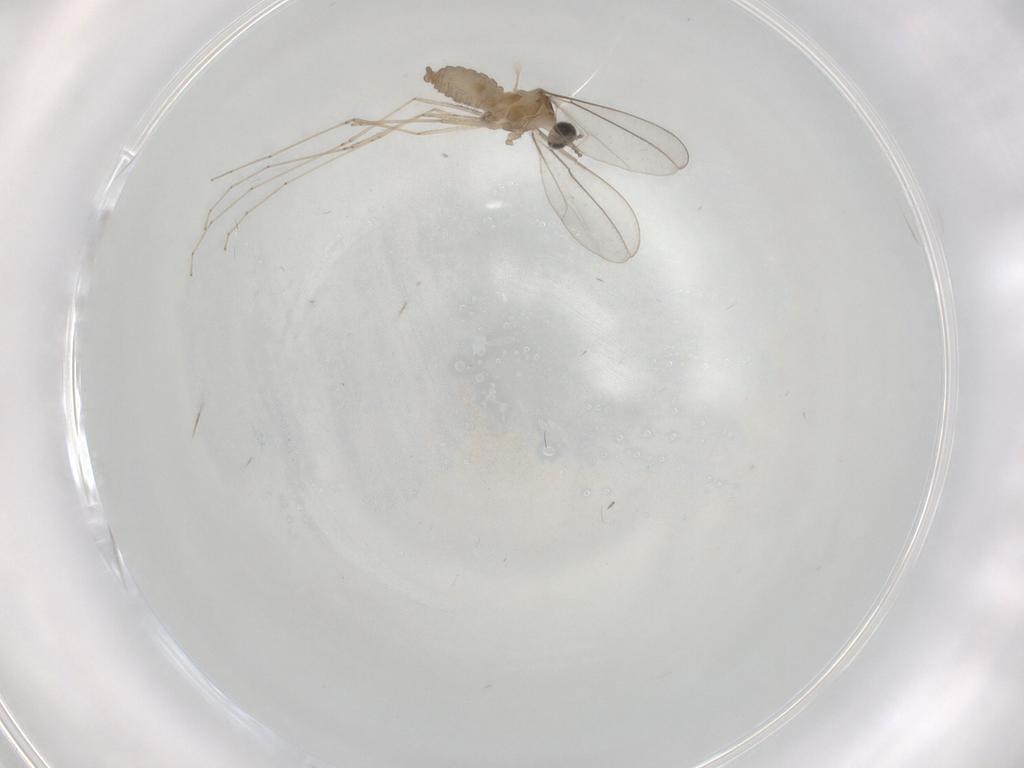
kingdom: Animalia
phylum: Arthropoda
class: Insecta
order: Diptera
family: Cecidomyiidae
